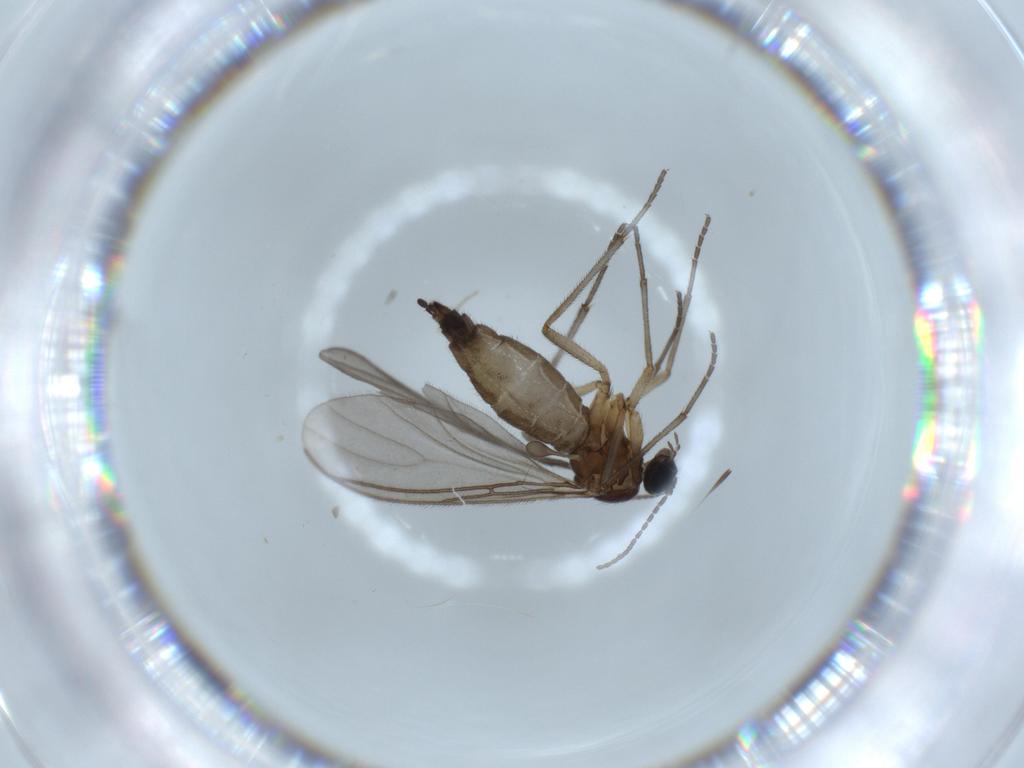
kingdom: Animalia
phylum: Arthropoda
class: Insecta
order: Diptera
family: Sciaridae
